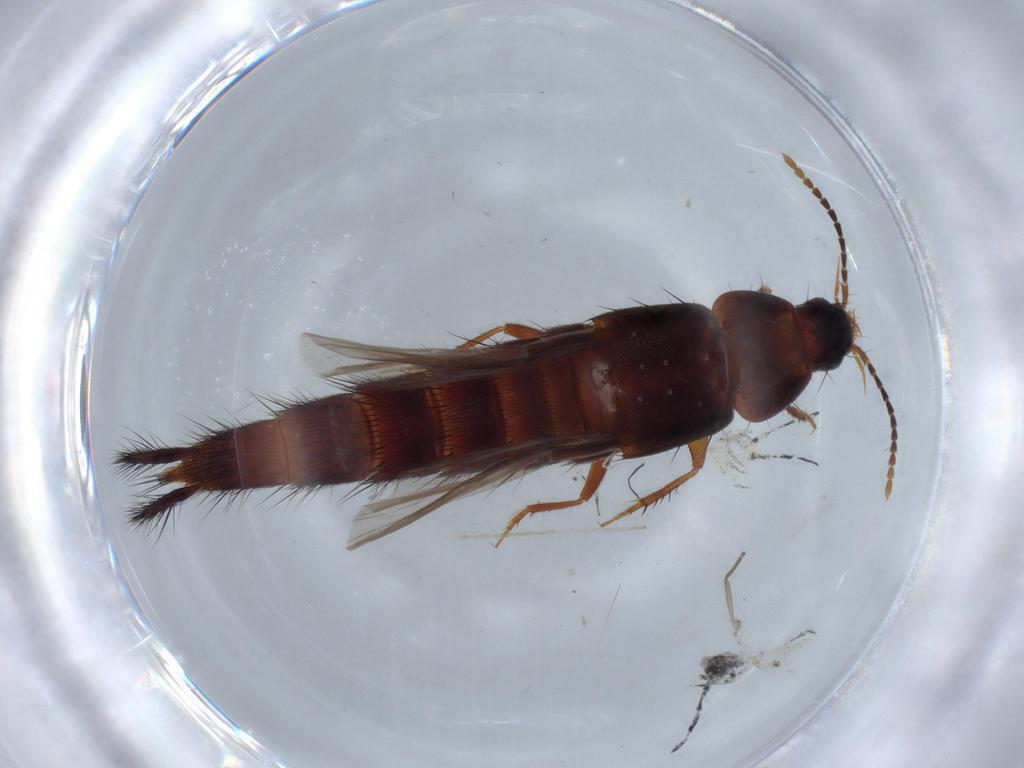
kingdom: Animalia
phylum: Arthropoda
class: Insecta
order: Coleoptera
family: Staphylinidae
